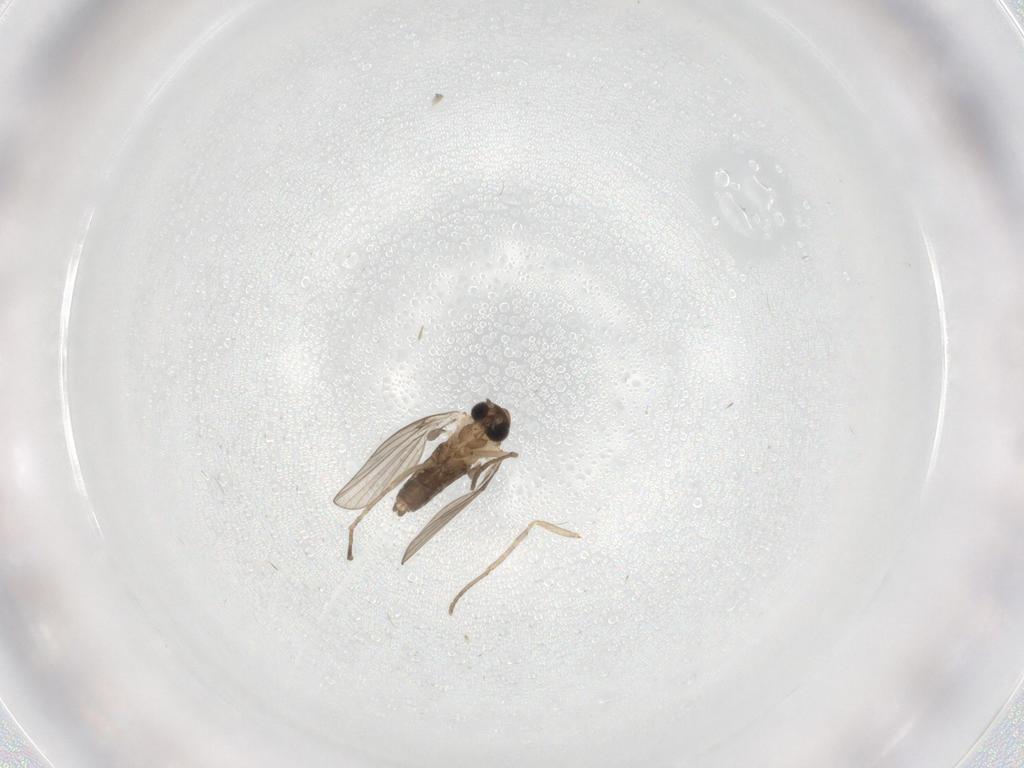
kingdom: Animalia
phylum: Arthropoda
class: Insecta
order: Diptera
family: Psychodidae
